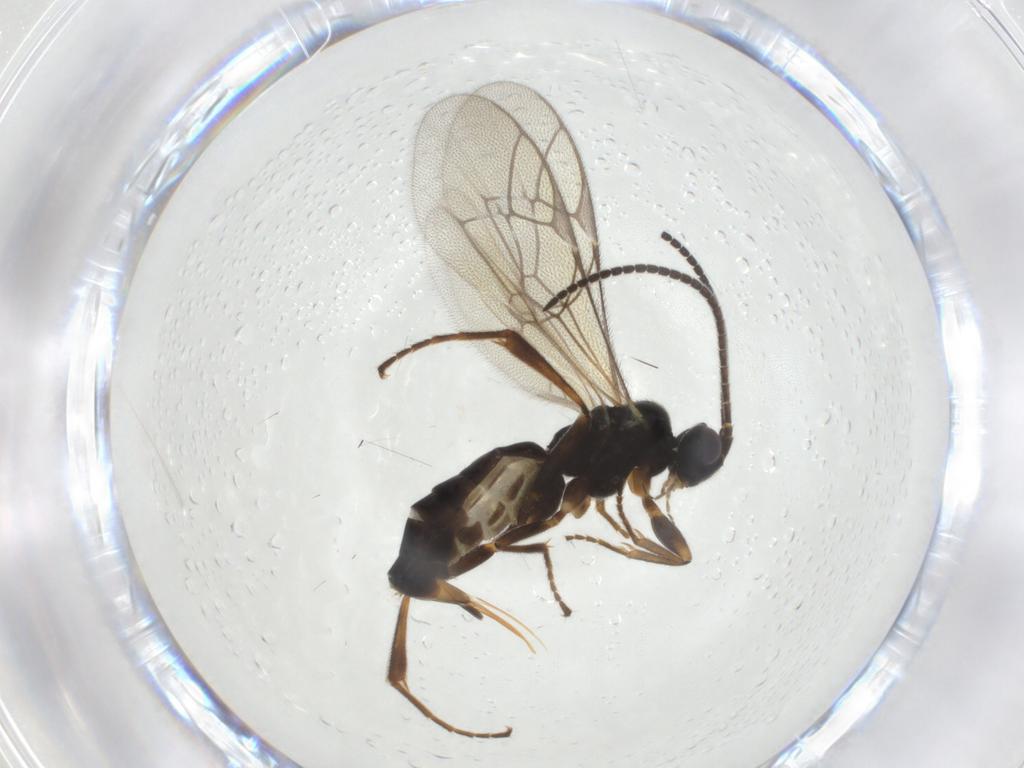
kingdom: Animalia
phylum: Arthropoda
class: Insecta
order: Hymenoptera
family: Ichneumonidae
